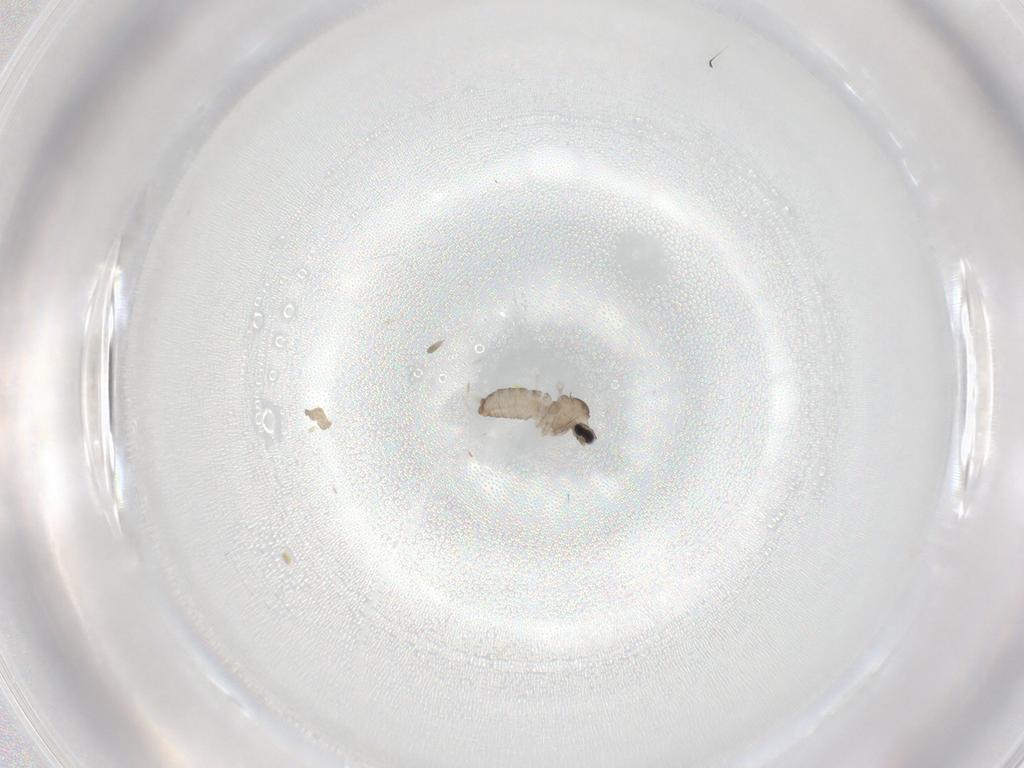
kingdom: Animalia
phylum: Arthropoda
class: Insecta
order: Diptera
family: Cecidomyiidae
